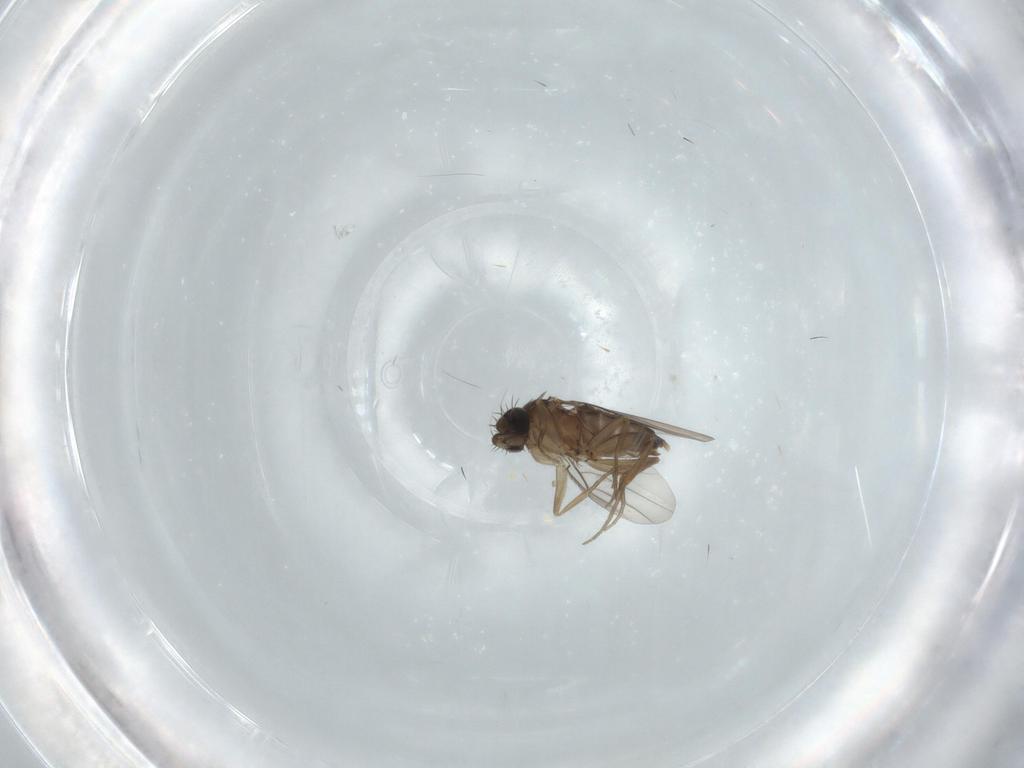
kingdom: Animalia
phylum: Arthropoda
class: Insecta
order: Diptera
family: Phoridae
